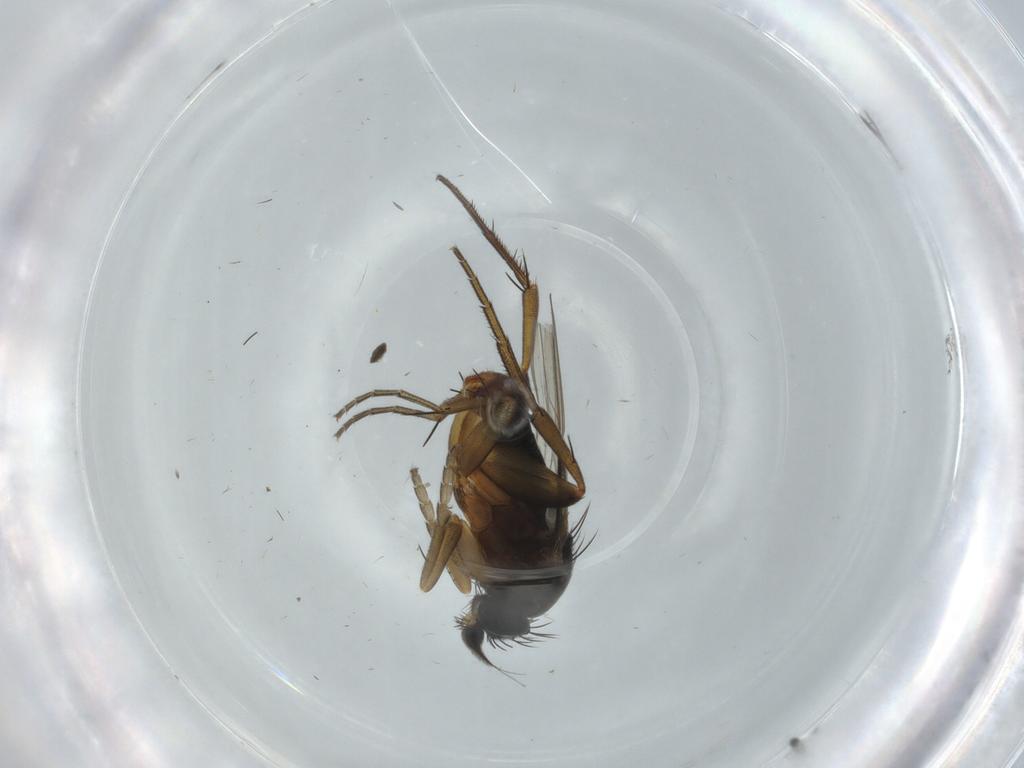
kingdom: Animalia
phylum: Arthropoda
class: Insecta
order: Diptera
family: Phoridae
